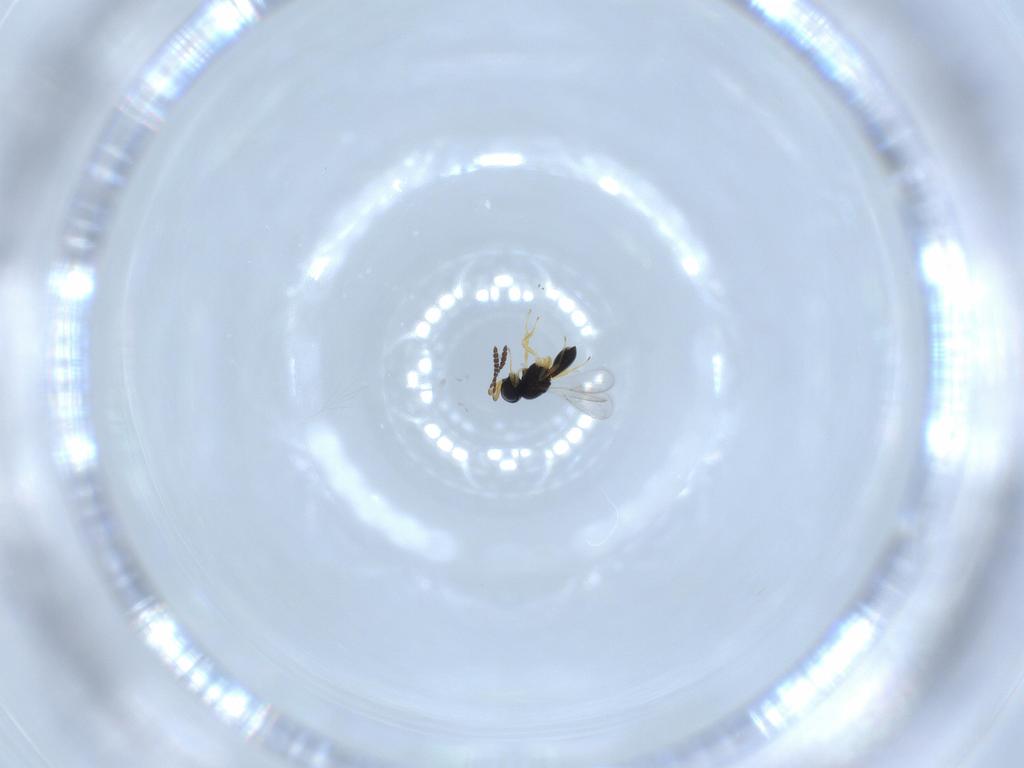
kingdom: Animalia
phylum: Arthropoda
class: Insecta
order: Hymenoptera
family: Scelionidae
